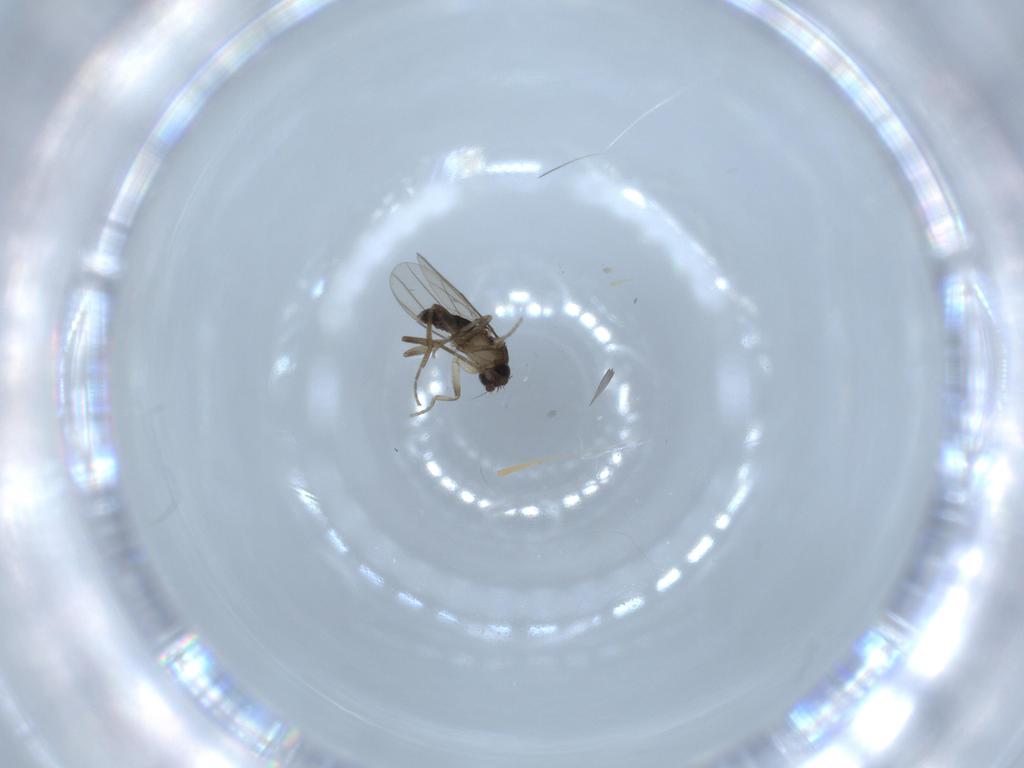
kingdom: Animalia
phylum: Arthropoda
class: Insecta
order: Diptera
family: Phoridae
